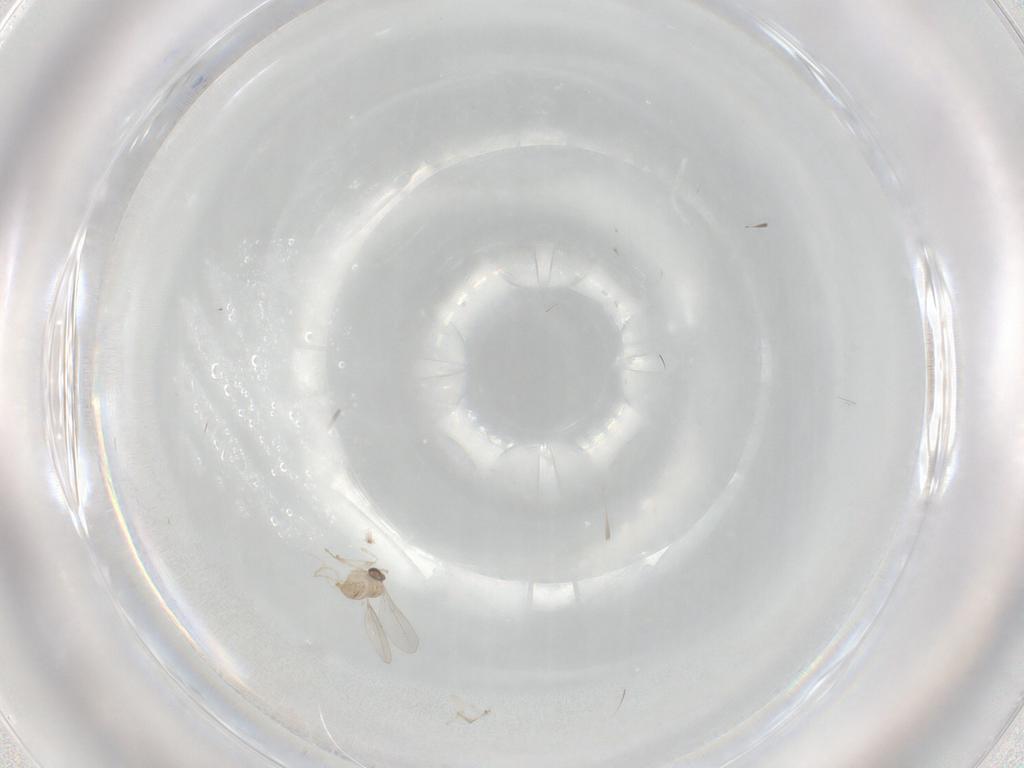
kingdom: Animalia
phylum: Arthropoda
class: Insecta
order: Diptera
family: Cecidomyiidae
